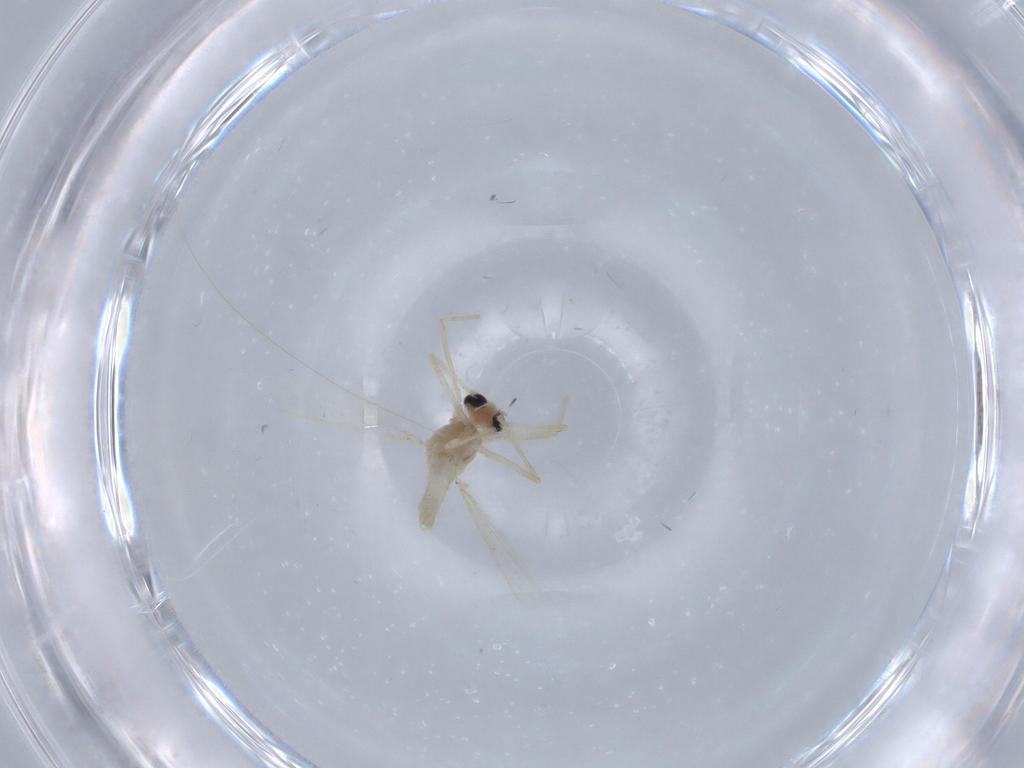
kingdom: Animalia
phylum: Arthropoda
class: Insecta
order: Diptera
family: Chironomidae
